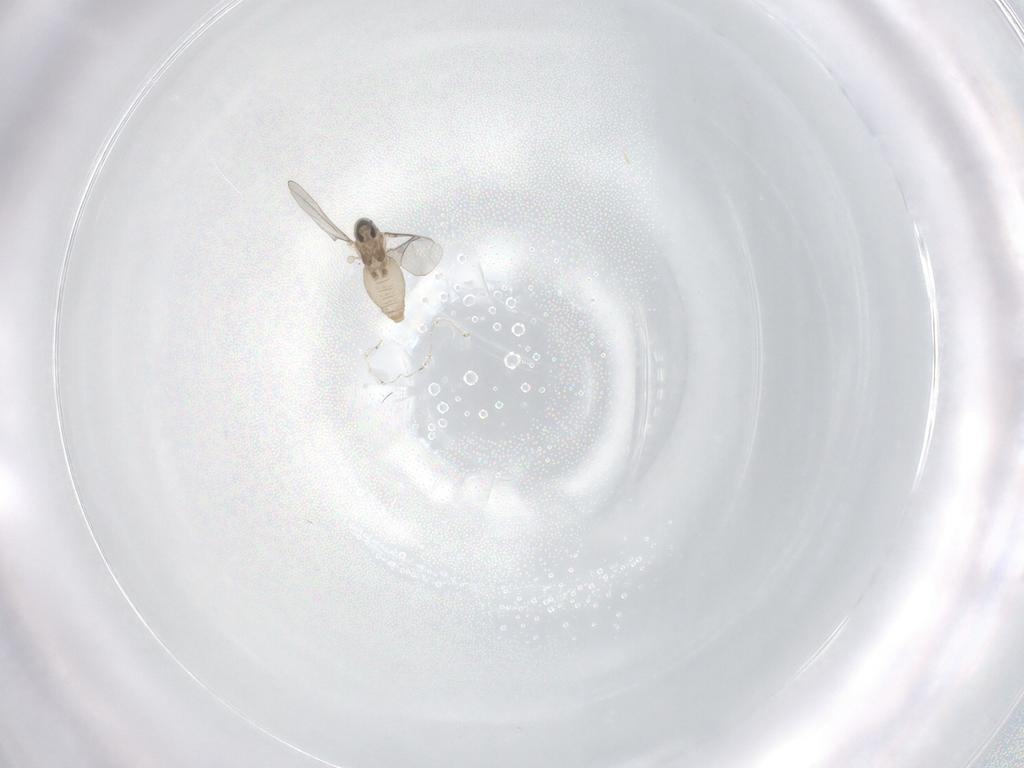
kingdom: Animalia
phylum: Arthropoda
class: Insecta
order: Diptera
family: Cecidomyiidae
